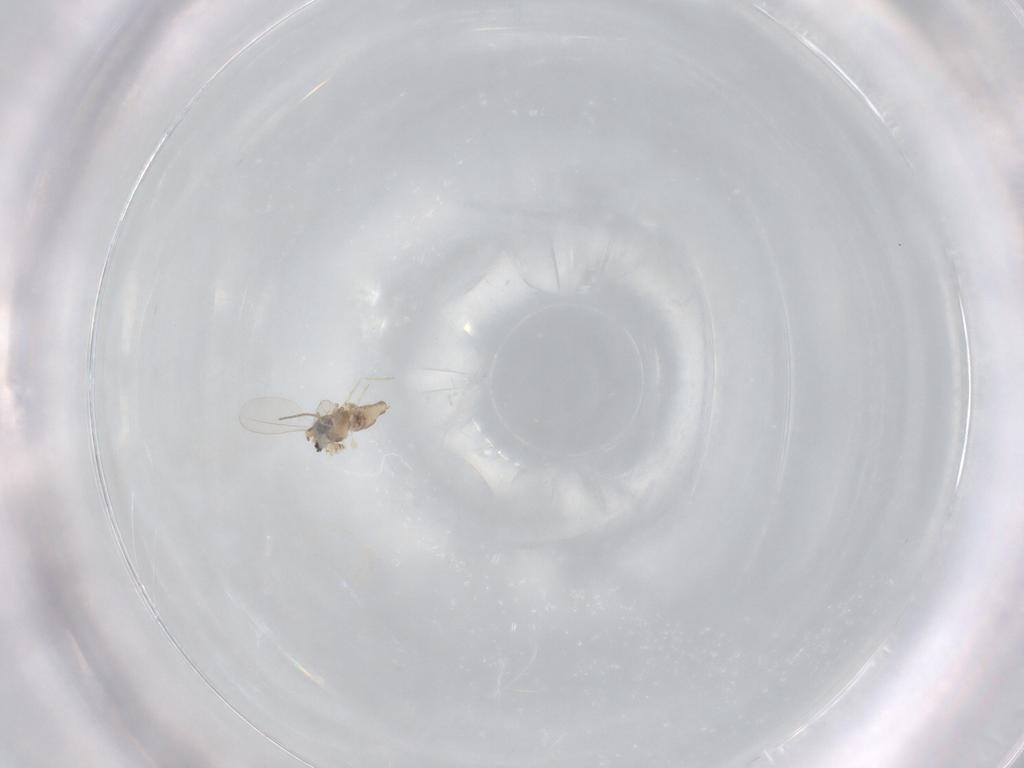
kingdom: Animalia
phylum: Arthropoda
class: Insecta
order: Diptera
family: Cecidomyiidae
